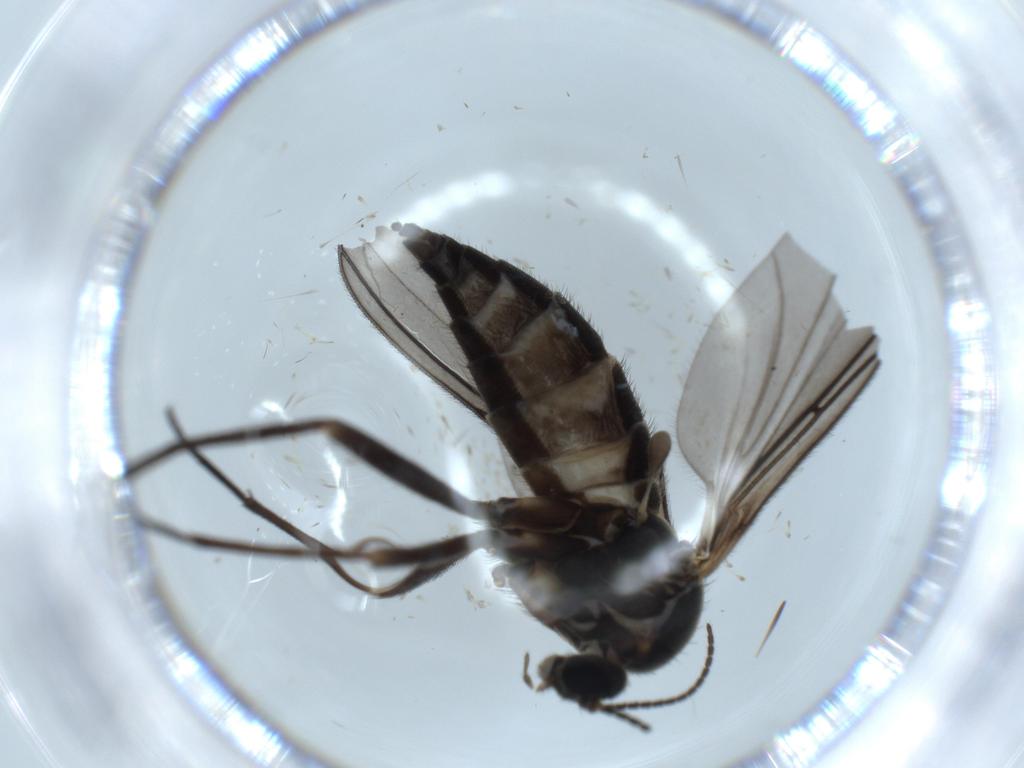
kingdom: Animalia
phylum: Arthropoda
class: Insecta
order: Diptera
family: Sciaridae
